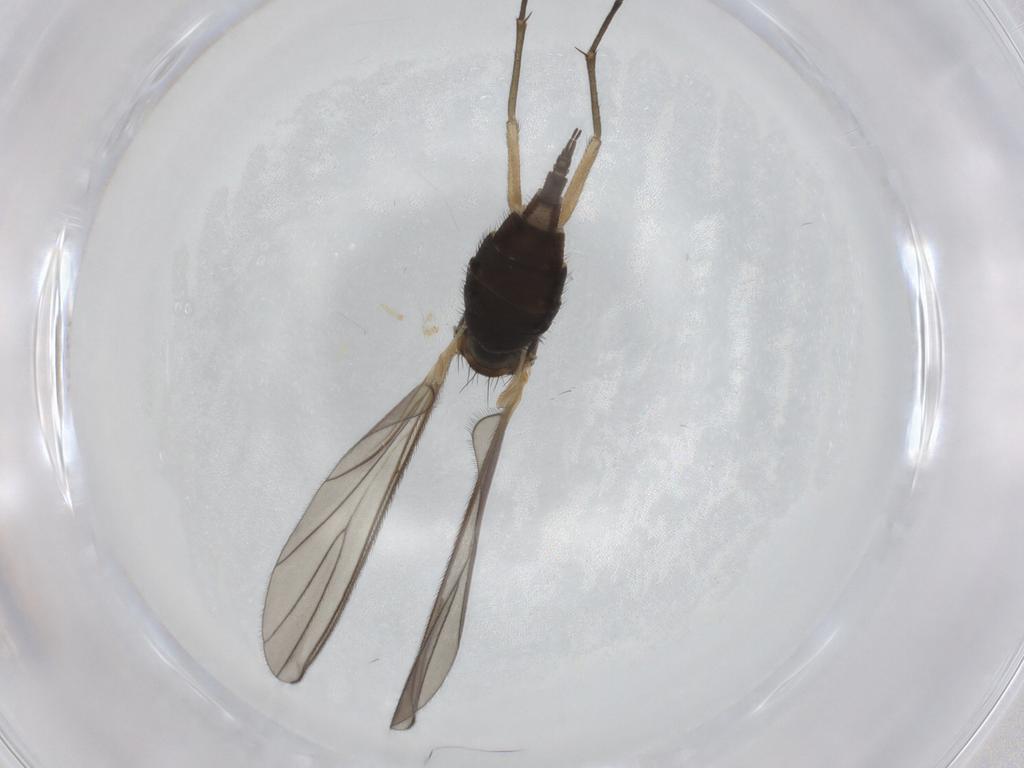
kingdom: Animalia
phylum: Arthropoda
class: Insecta
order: Diptera
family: Sciaridae
